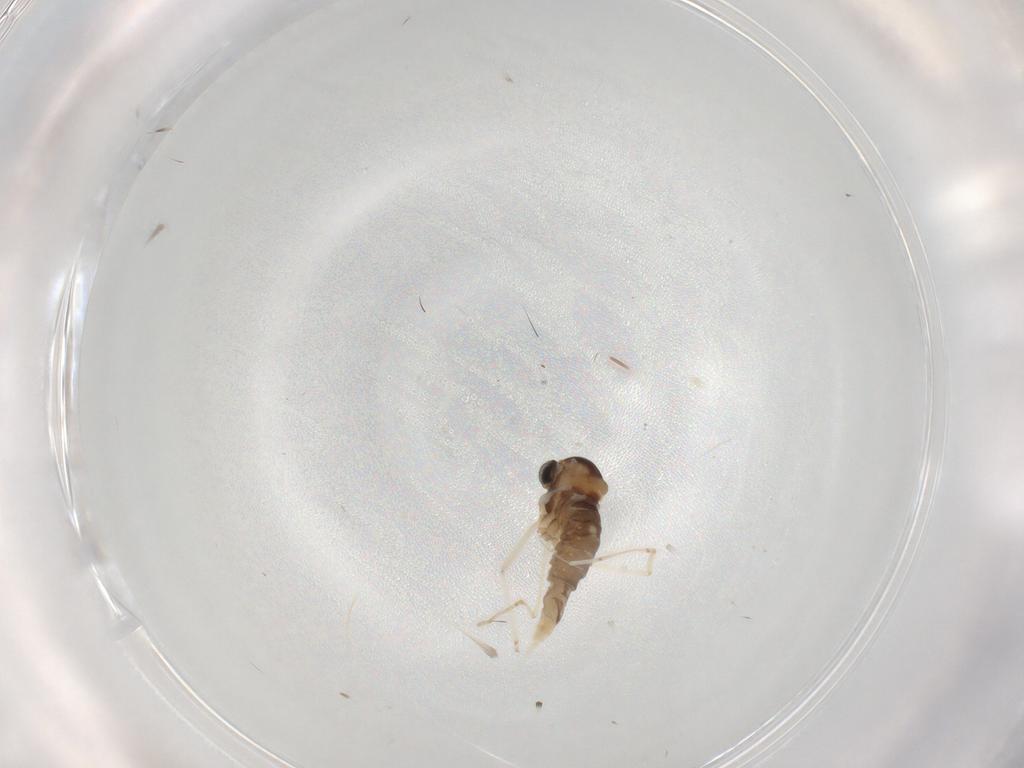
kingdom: Animalia
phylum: Arthropoda
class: Insecta
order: Diptera
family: Cecidomyiidae
